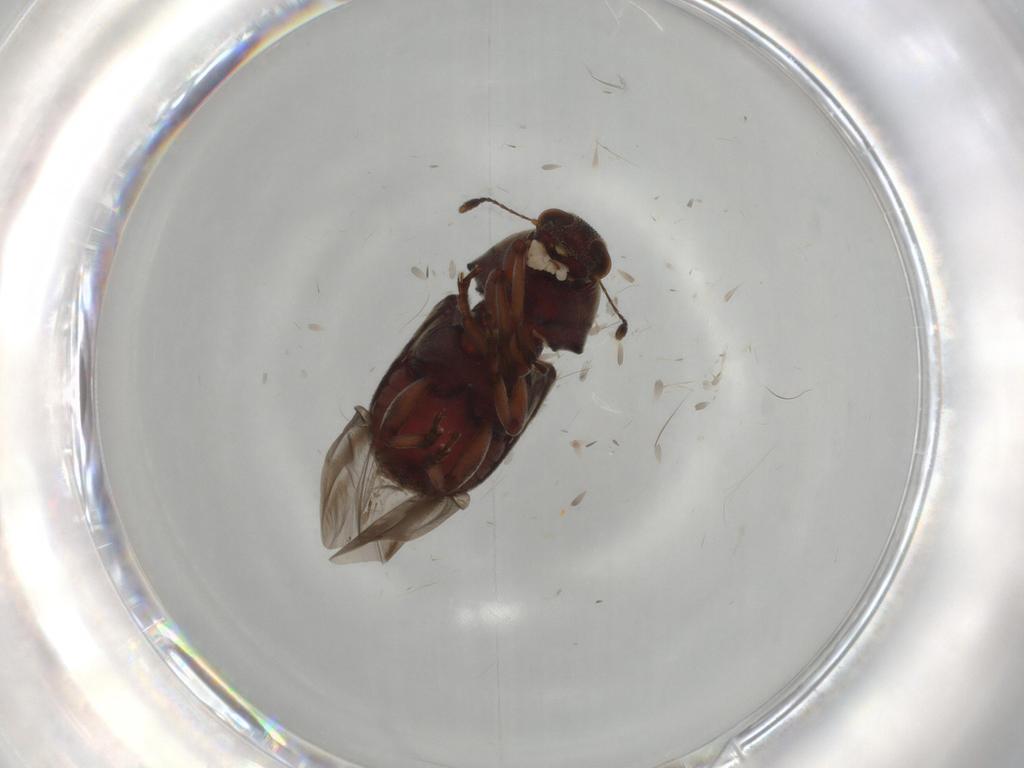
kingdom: Animalia
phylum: Arthropoda
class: Insecta
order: Coleoptera
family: Anthribidae
